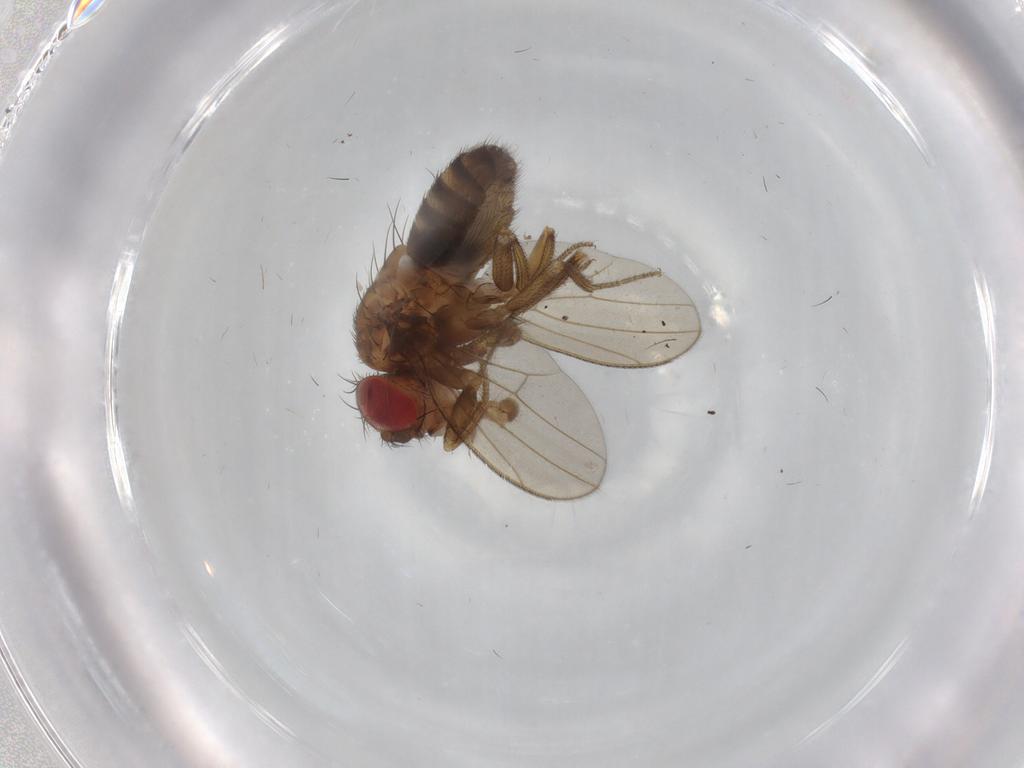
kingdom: Animalia
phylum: Arthropoda
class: Insecta
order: Diptera
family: Drosophilidae
